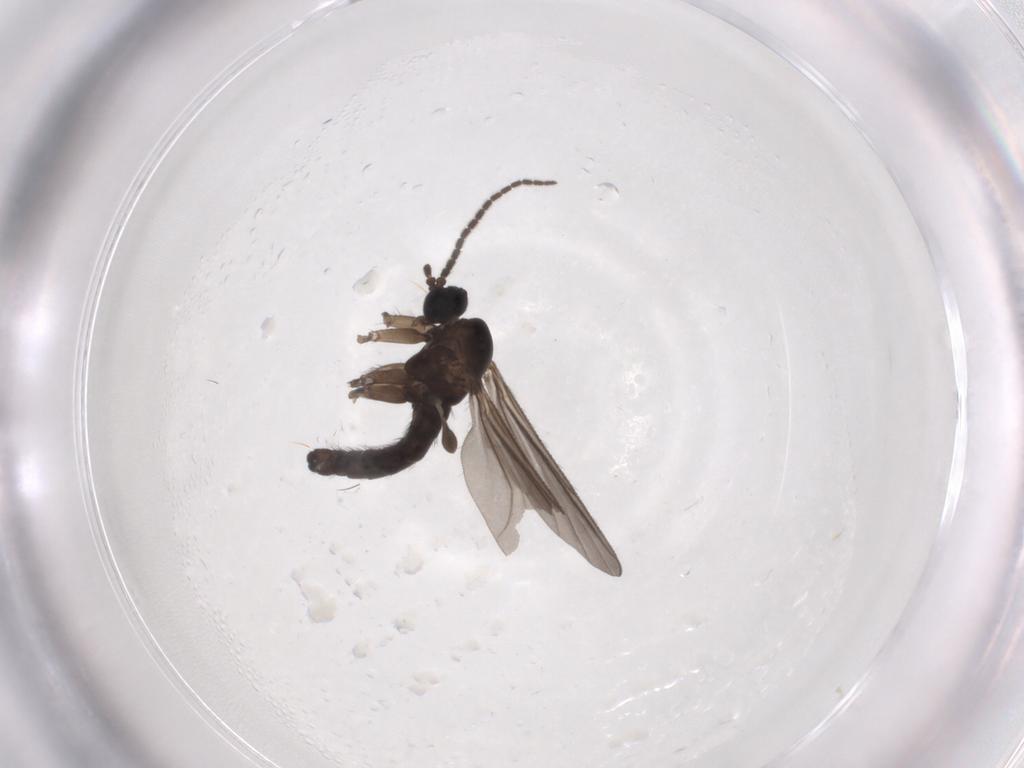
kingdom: Animalia
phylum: Arthropoda
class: Insecta
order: Diptera
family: Sciaridae
